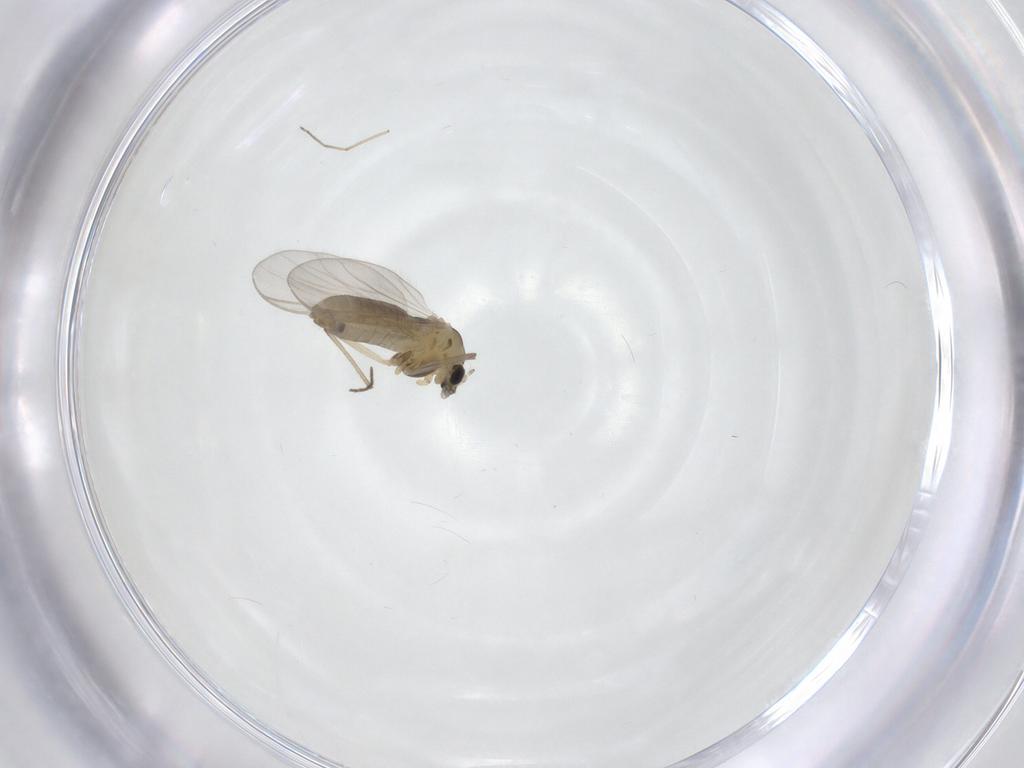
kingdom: Animalia
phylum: Arthropoda
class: Insecta
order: Diptera
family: Chironomidae
